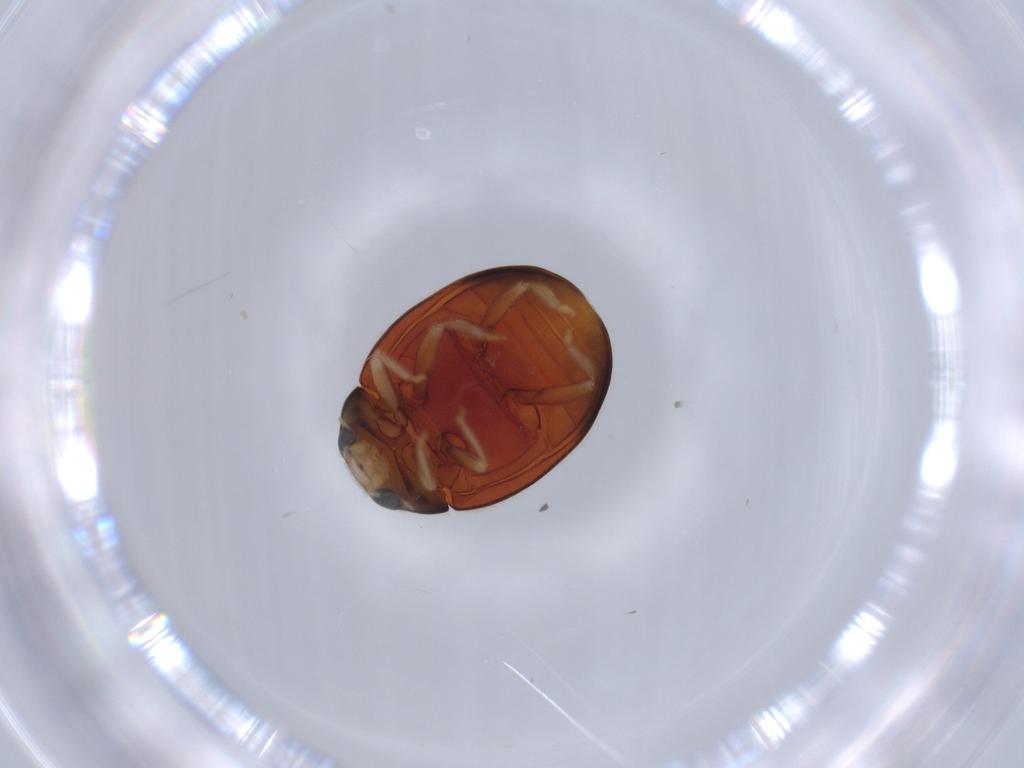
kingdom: Animalia
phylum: Arthropoda
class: Insecta
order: Coleoptera
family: Coccinellidae
